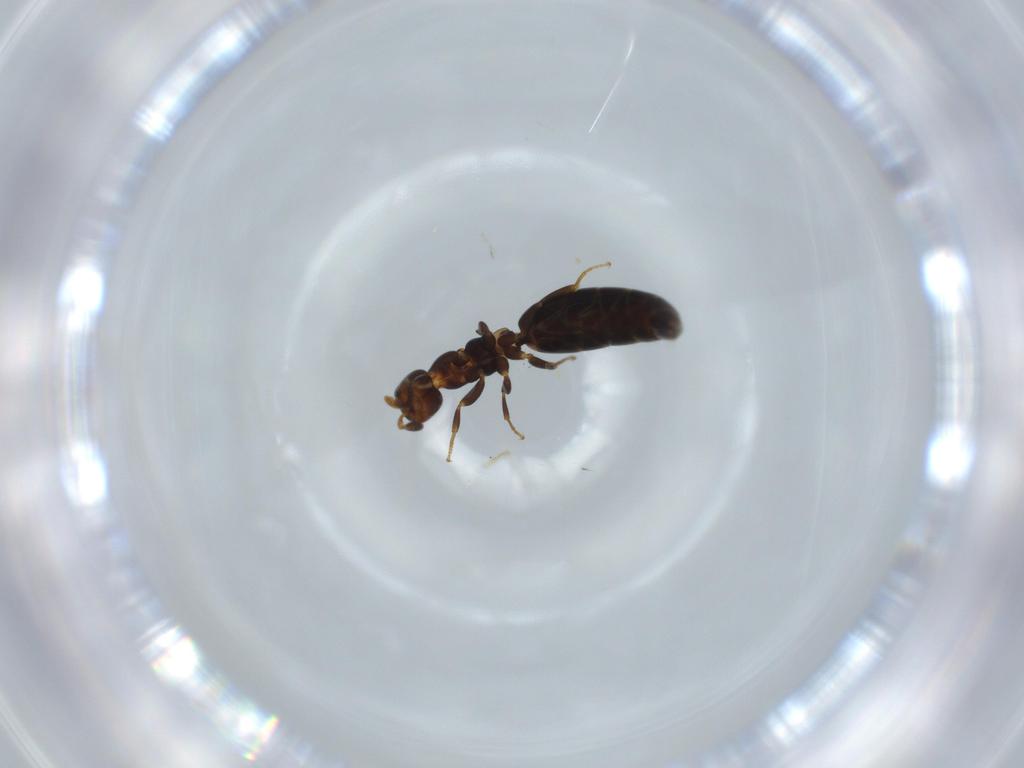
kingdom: Animalia
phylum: Arthropoda
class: Insecta
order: Hymenoptera
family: Bethylidae
